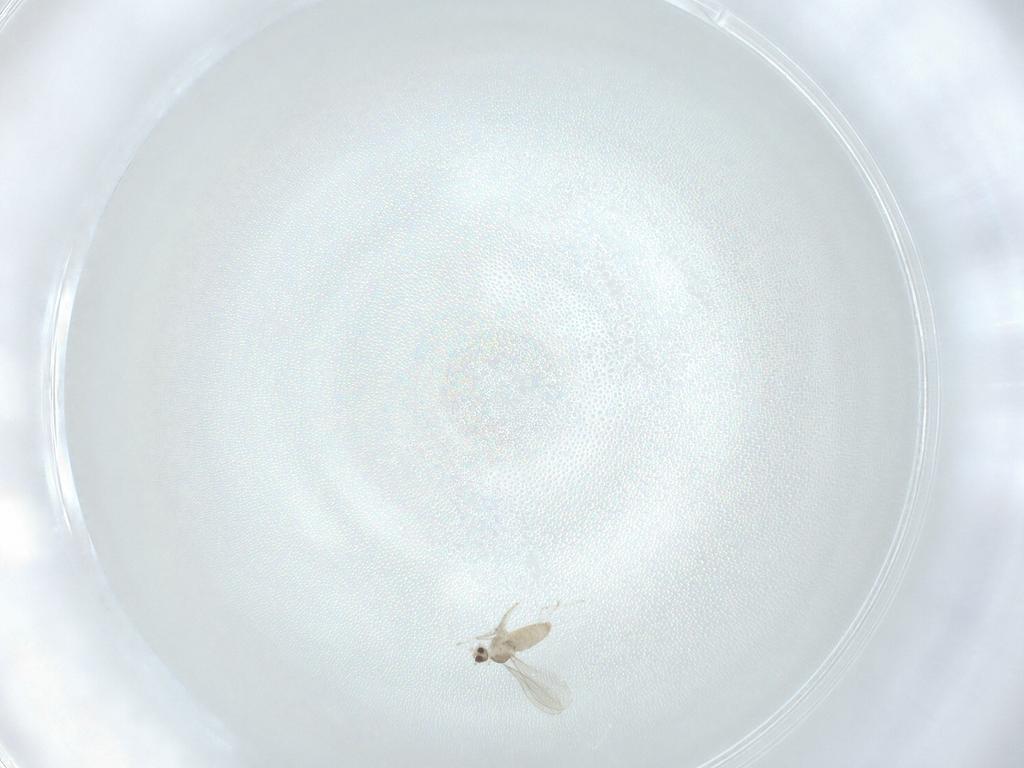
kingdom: Animalia
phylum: Arthropoda
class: Insecta
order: Diptera
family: Cecidomyiidae
